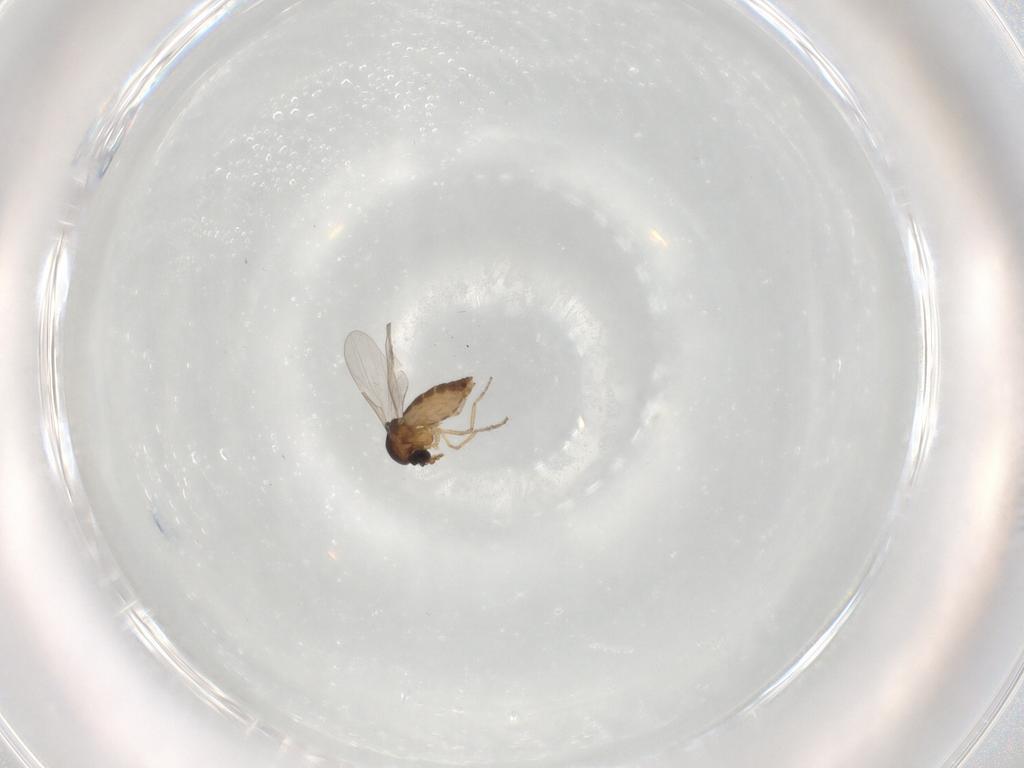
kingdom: Animalia
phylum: Arthropoda
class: Insecta
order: Diptera
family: Ceratopogonidae
